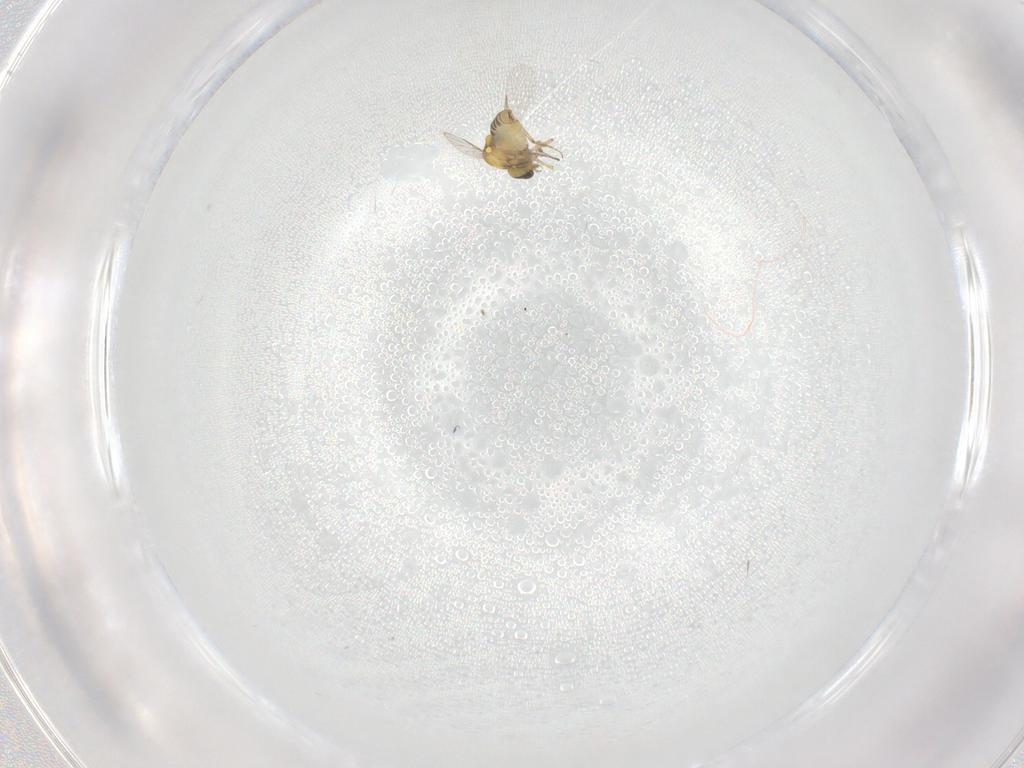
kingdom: Animalia
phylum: Arthropoda
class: Insecta
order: Diptera
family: Ceratopogonidae
